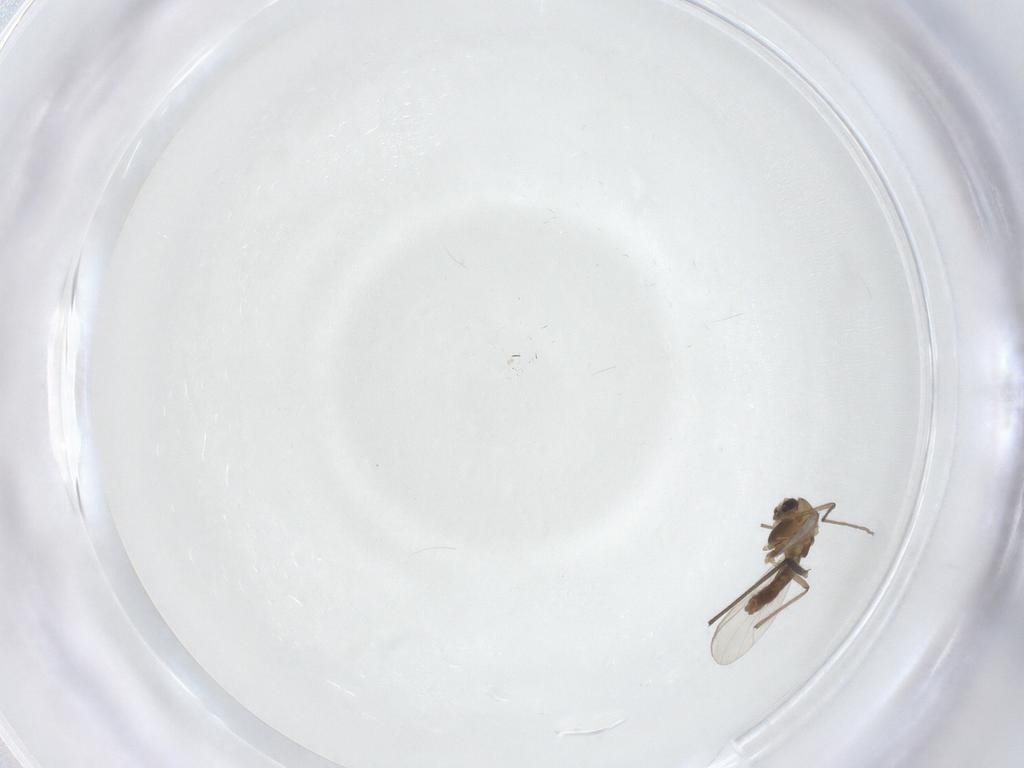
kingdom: Animalia
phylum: Arthropoda
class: Insecta
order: Diptera
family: Chironomidae
